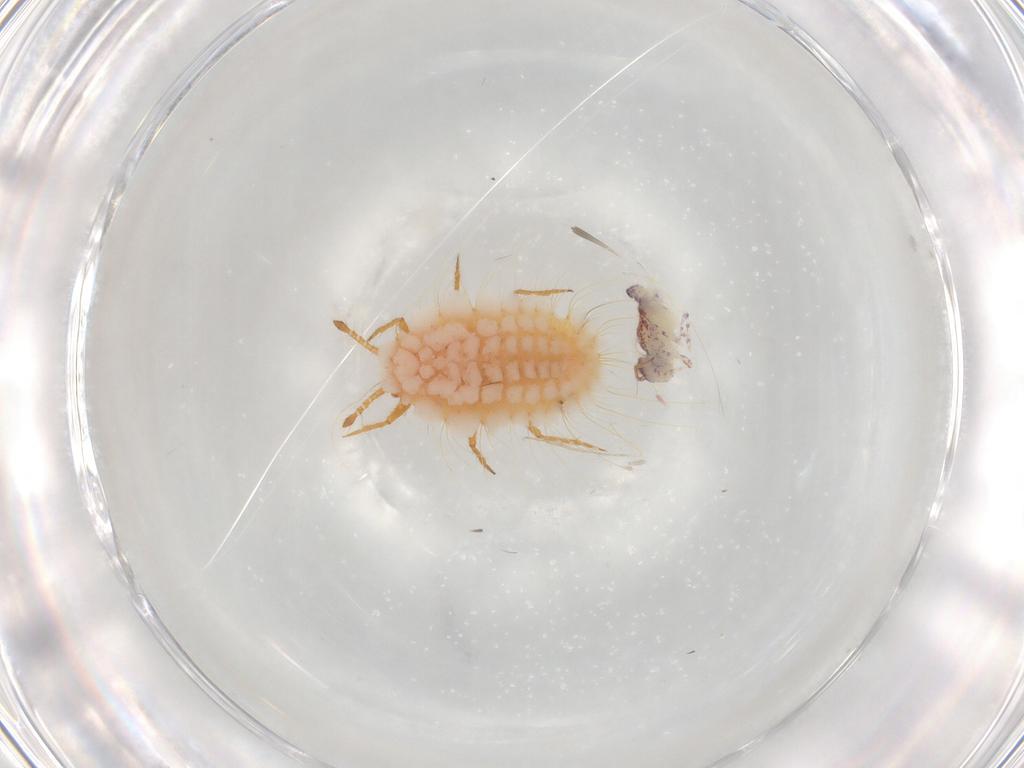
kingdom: Animalia
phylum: Arthropoda
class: Collembola
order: Symphypleona
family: Bourletiellidae
